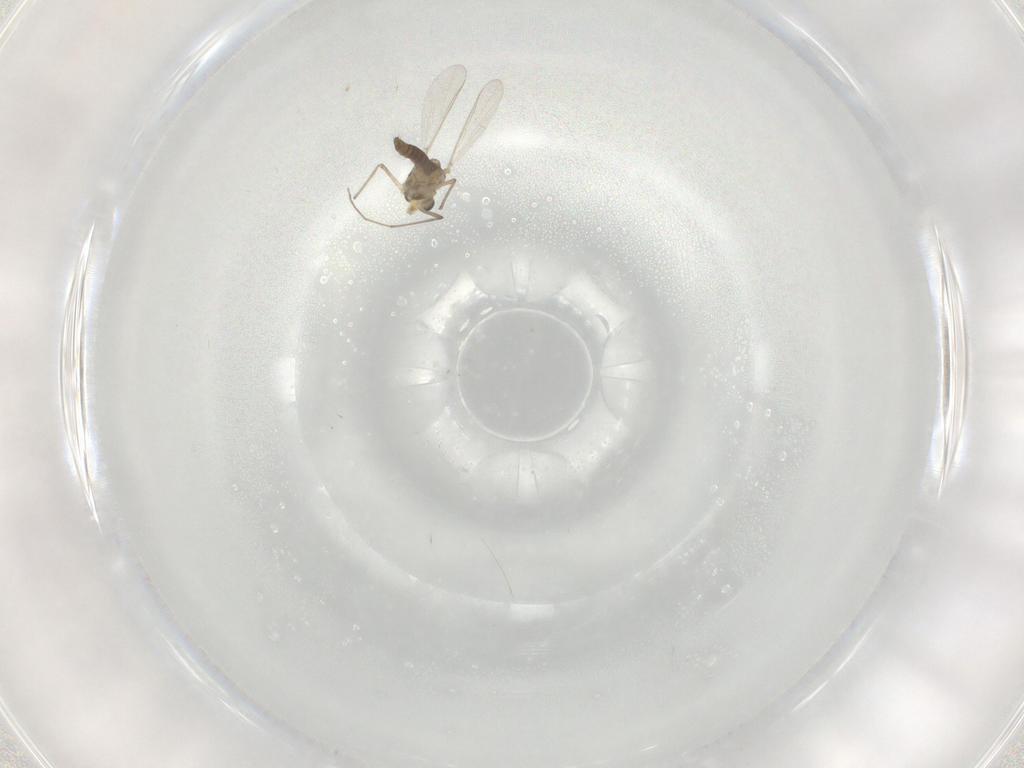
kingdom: Animalia
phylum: Arthropoda
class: Insecta
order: Diptera
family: Chironomidae
